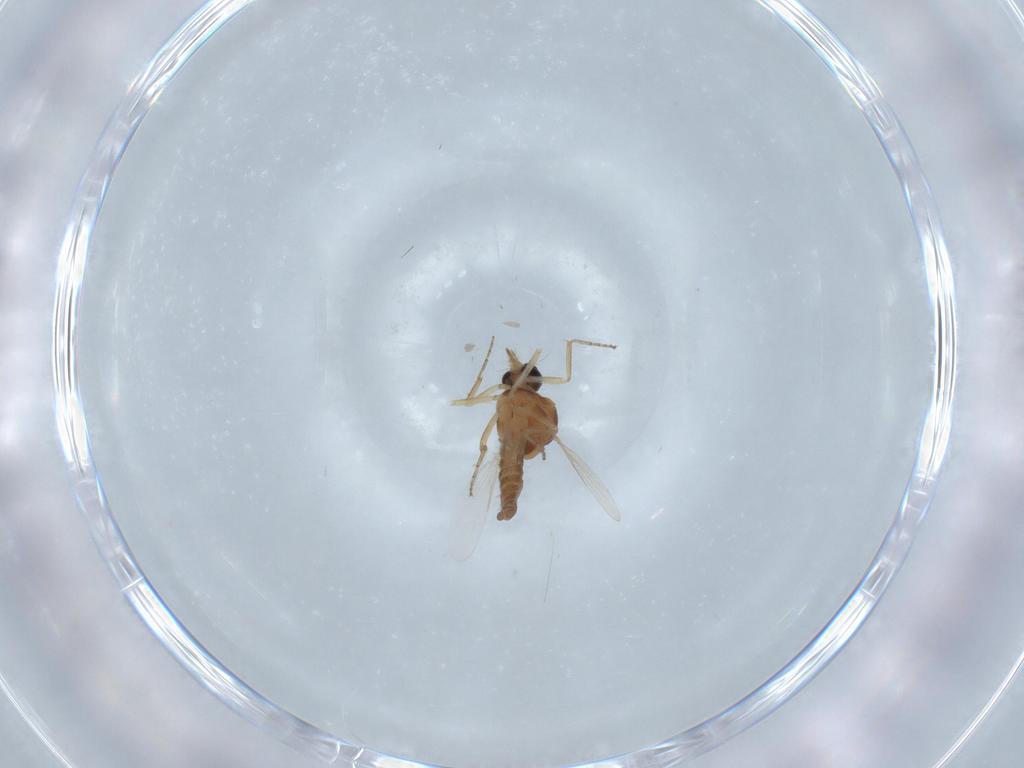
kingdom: Animalia
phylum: Arthropoda
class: Insecta
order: Diptera
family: Ceratopogonidae
